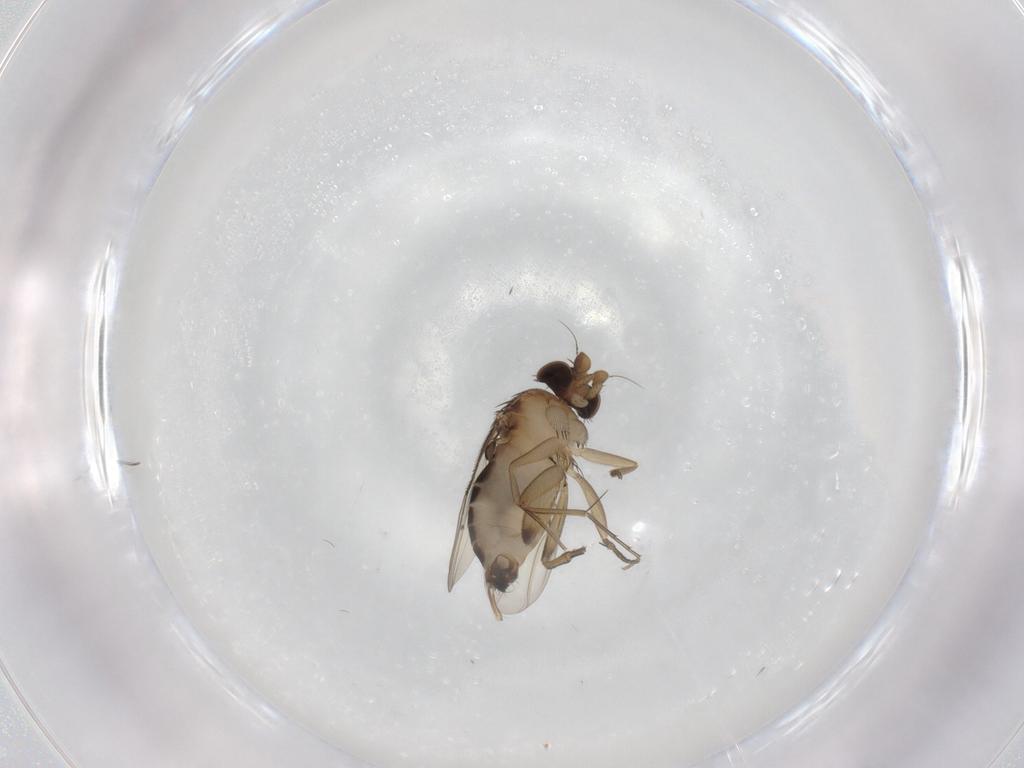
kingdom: Animalia
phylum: Arthropoda
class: Insecta
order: Diptera
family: Phoridae
